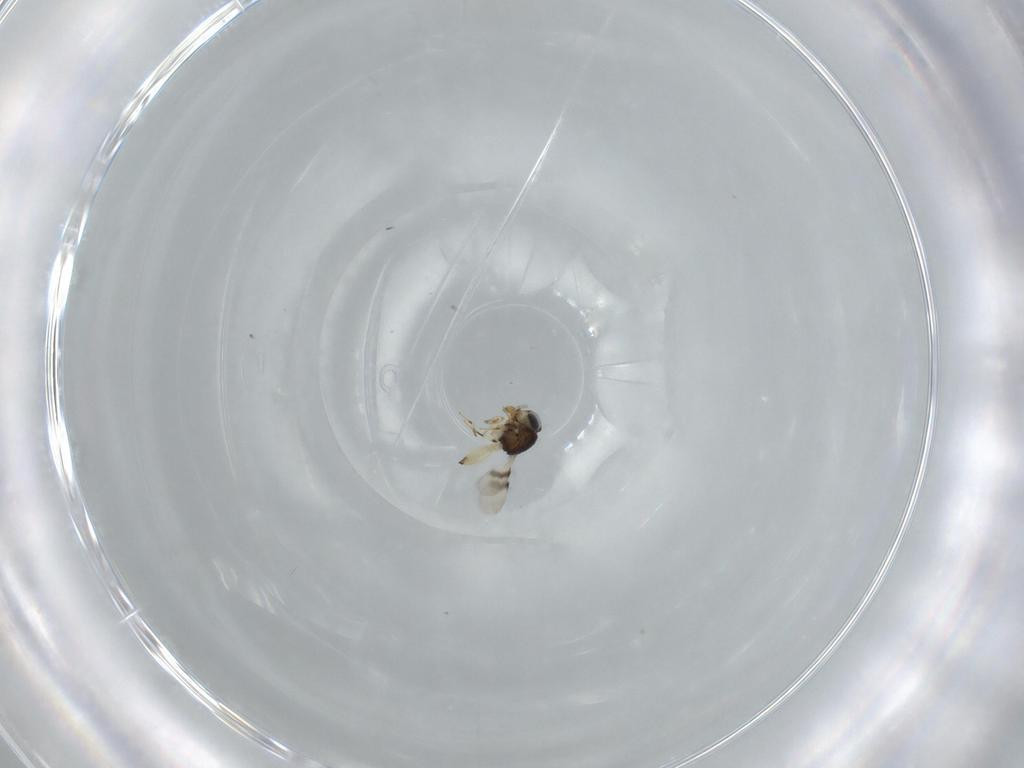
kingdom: Animalia
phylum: Arthropoda
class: Insecta
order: Hymenoptera
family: Scelionidae
